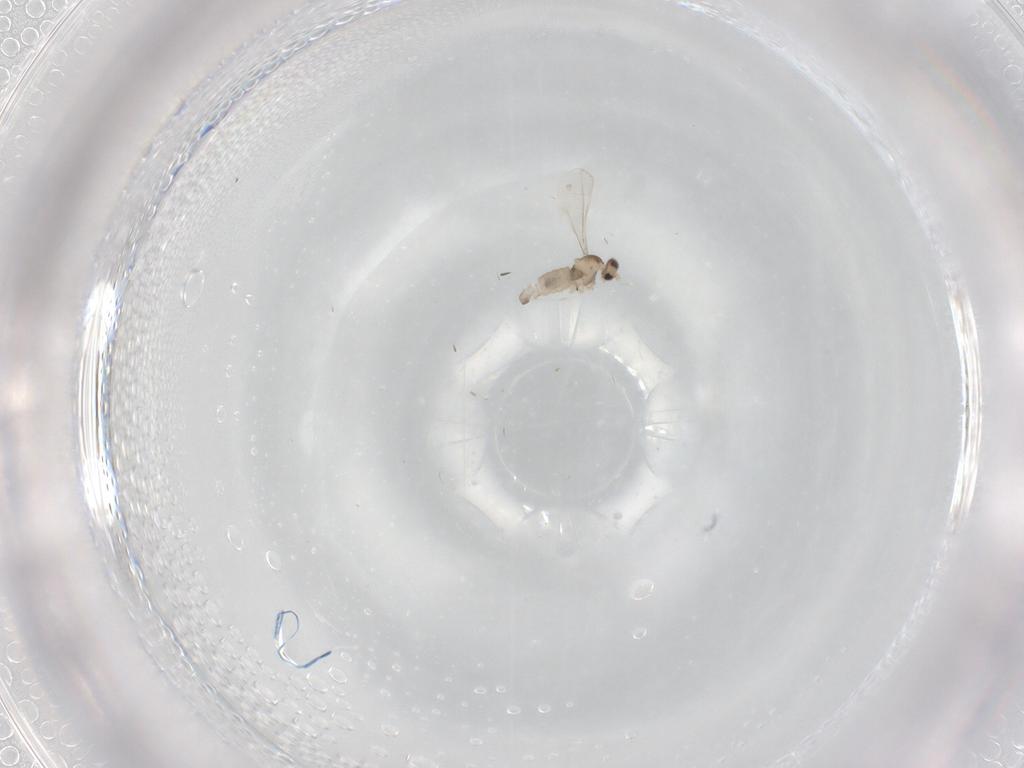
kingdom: Animalia
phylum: Arthropoda
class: Insecta
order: Diptera
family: Cecidomyiidae
